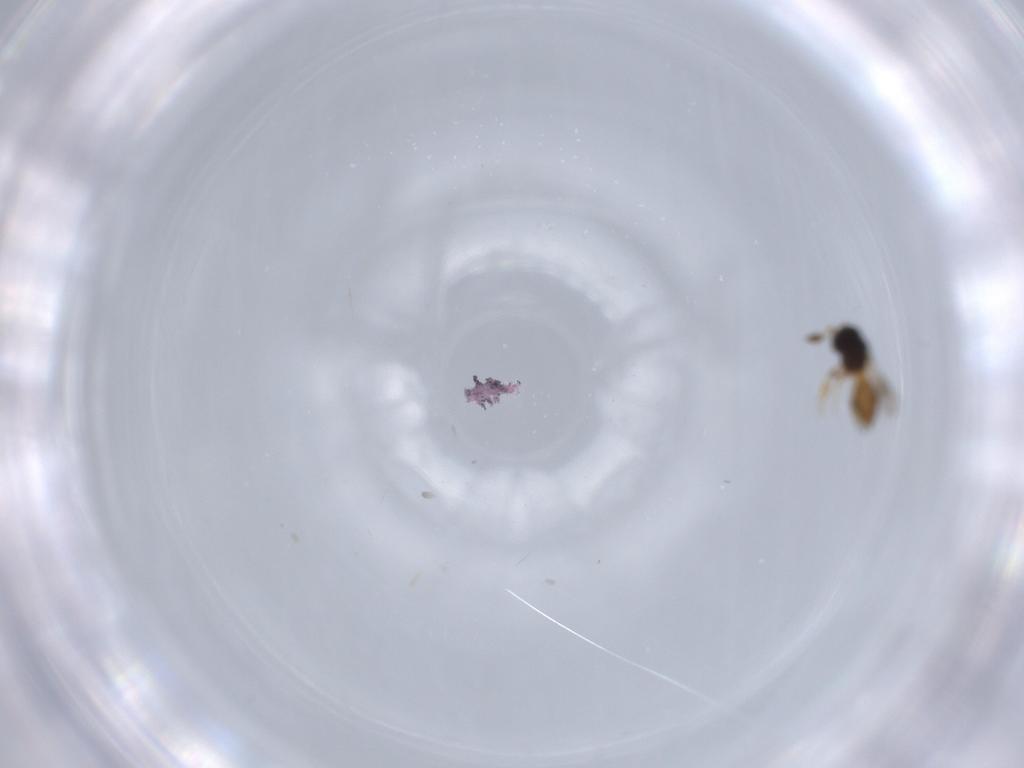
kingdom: Animalia
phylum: Arthropoda
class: Insecta
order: Hymenoptera
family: Scelionidae
